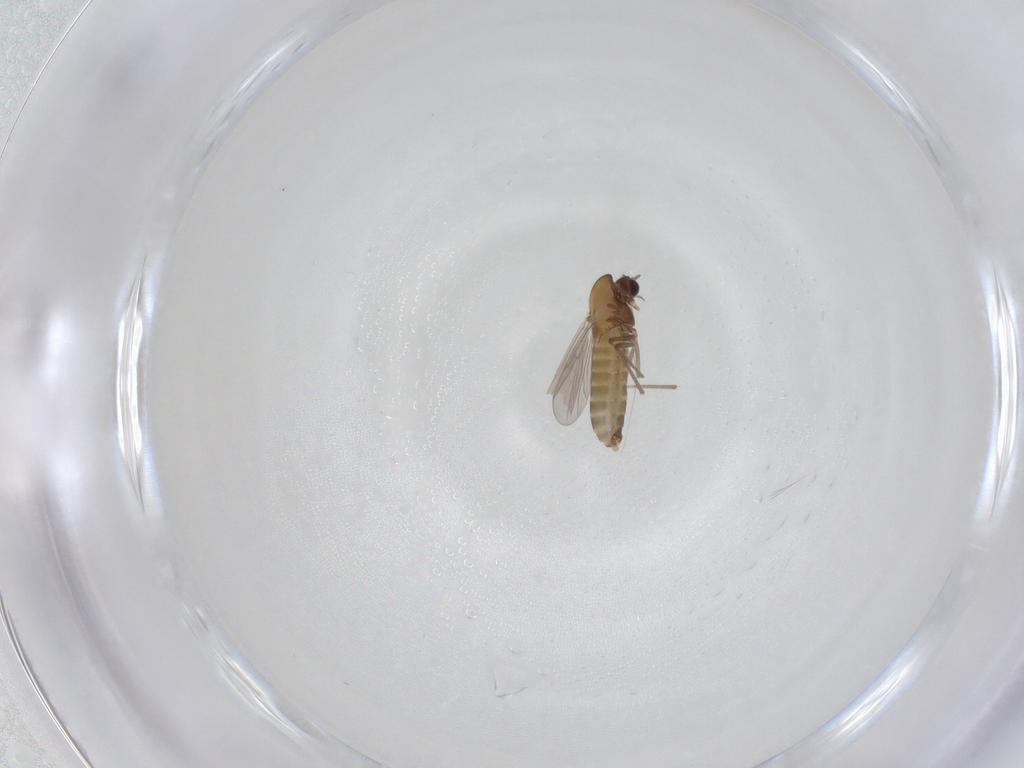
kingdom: Animalia
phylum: Arthropoda
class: Insecta
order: Diptera
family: Chironomidae
